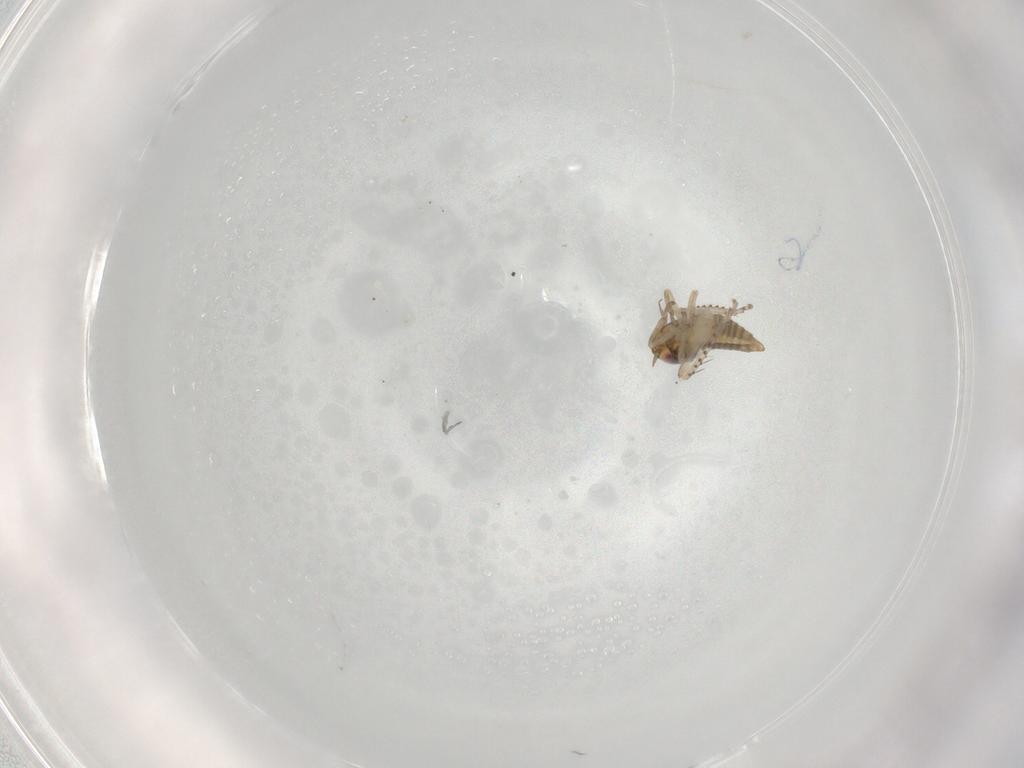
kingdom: Animalia
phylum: Arthropoda
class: Insecta
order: Hemiptera
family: Cicadellidae
